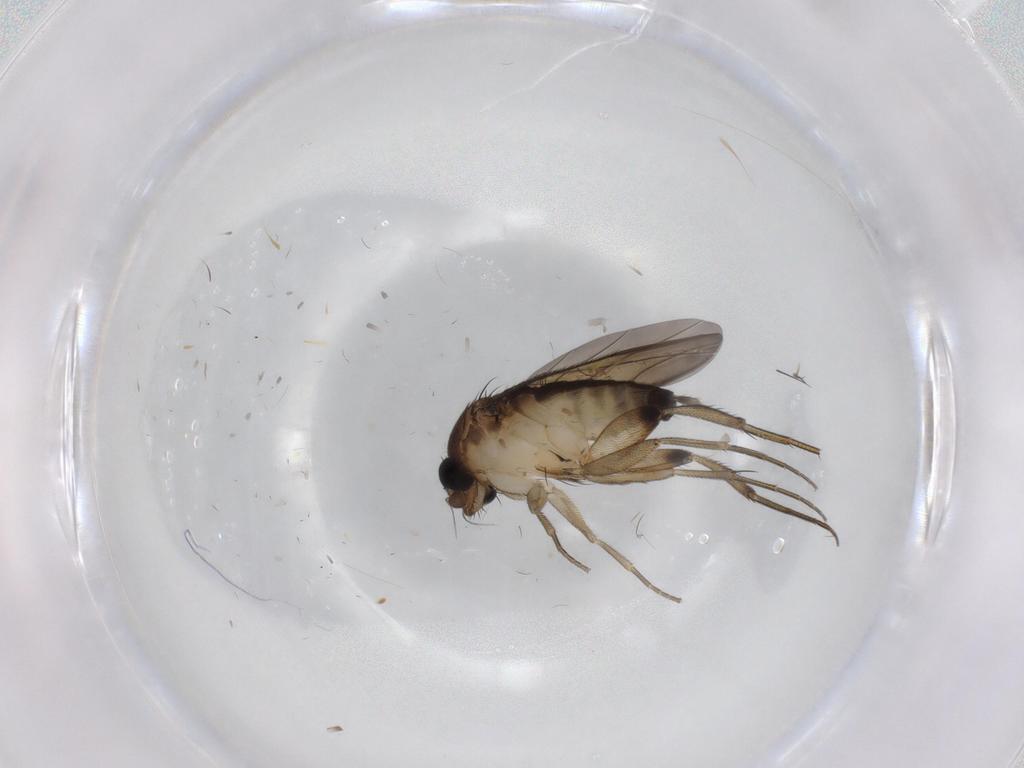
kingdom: Animalia
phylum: Arthropoda
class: Insecta
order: Diptera
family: Phoridae
